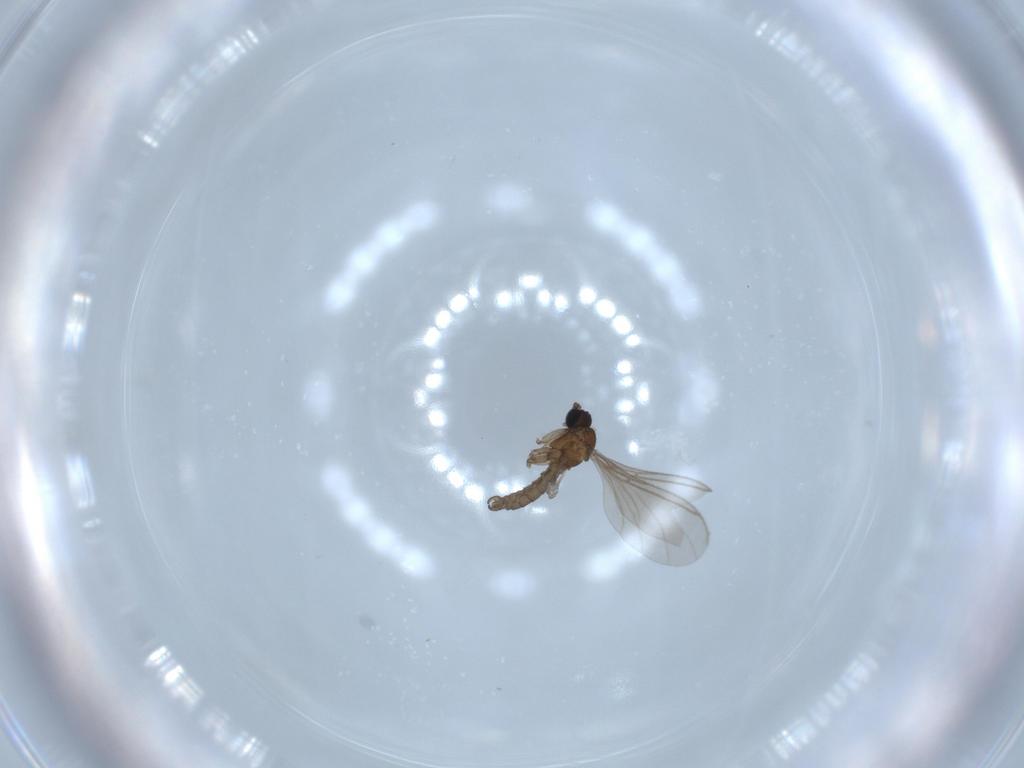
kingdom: Animalia
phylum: Arthropoda
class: Insecta
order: Diptera
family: Sciaridae
